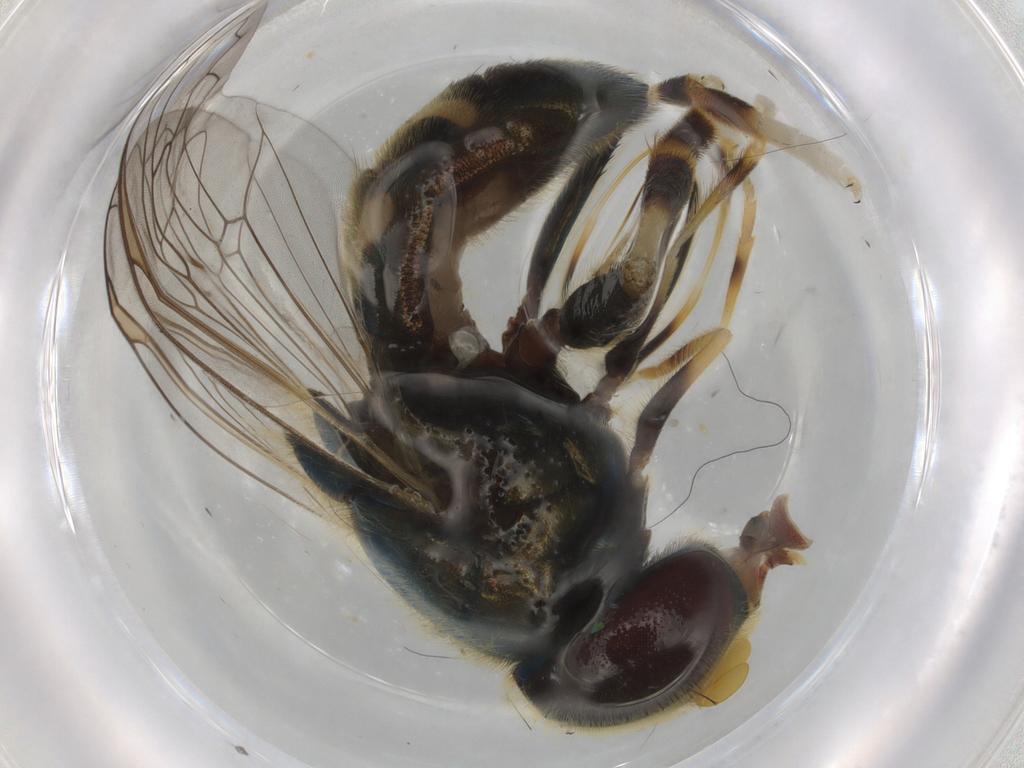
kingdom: Animalia
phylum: Arthropoda
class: Insecta
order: Diptera
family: Syrphidae
